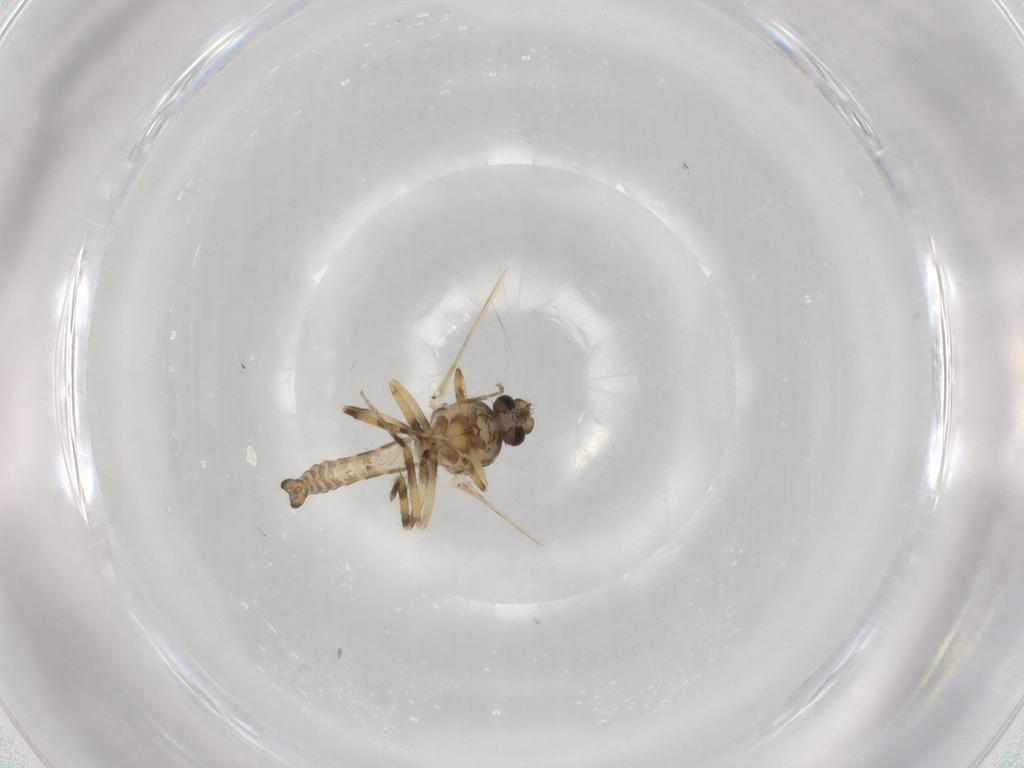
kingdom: Animalia
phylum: Arthropoda
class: Insecta
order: Diptera
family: Ceratopogonidae
